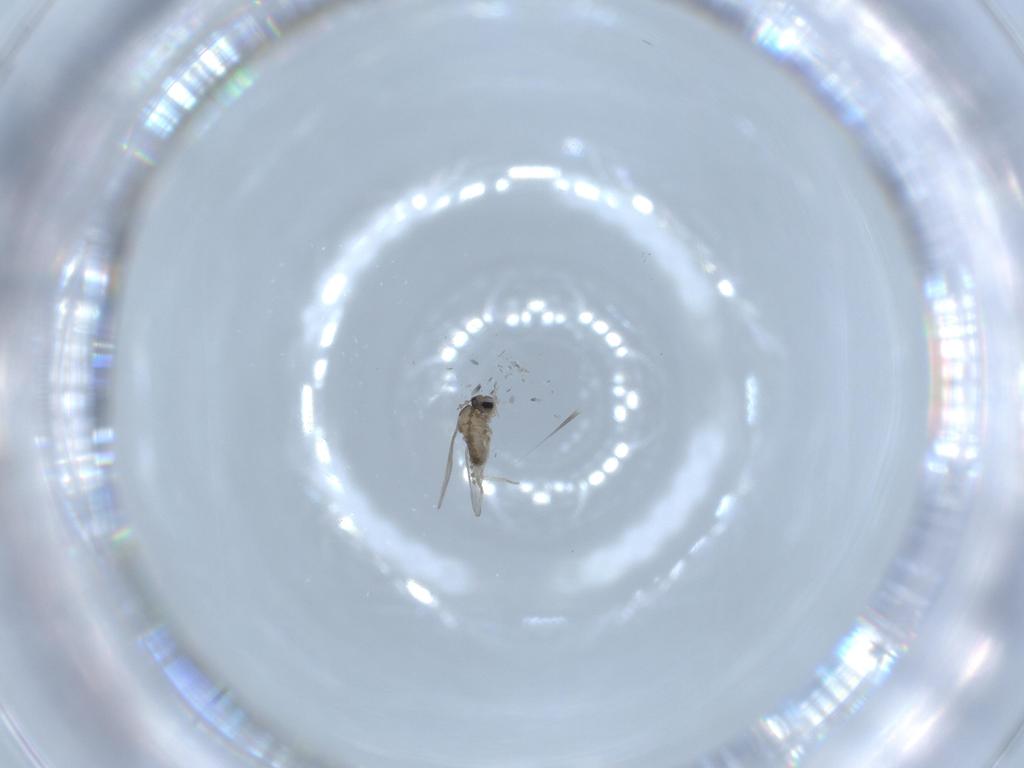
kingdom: Animalia
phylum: Arthropoda
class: Insecta
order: Diptera
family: Cecidomyiidae
